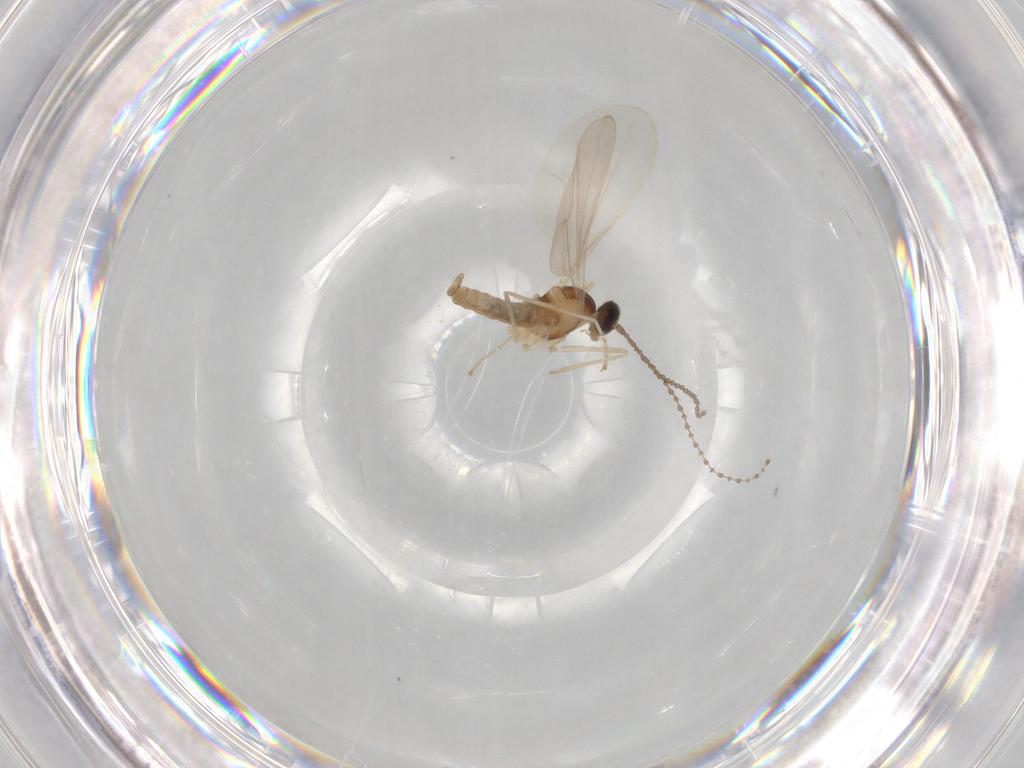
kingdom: Animalia
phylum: Arthropoda
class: Insecta
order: Diptera
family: Cecidomyiidae
